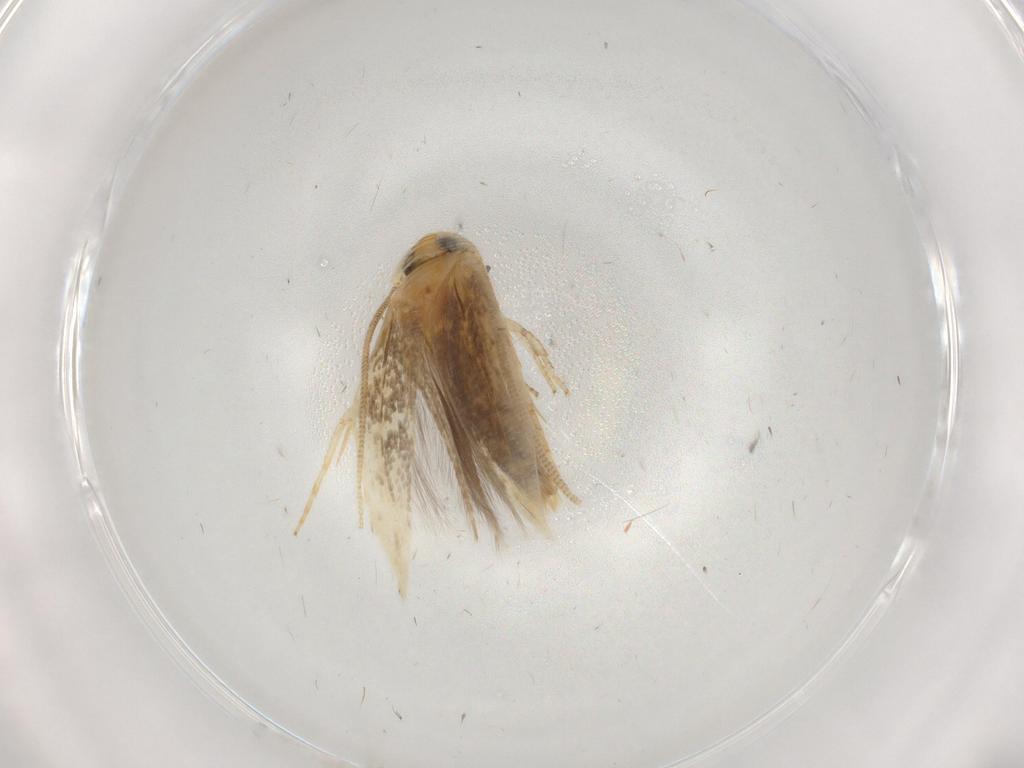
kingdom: Animalia
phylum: Arthropoda
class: Insecta
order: Lepidoptera
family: Opostegidae
